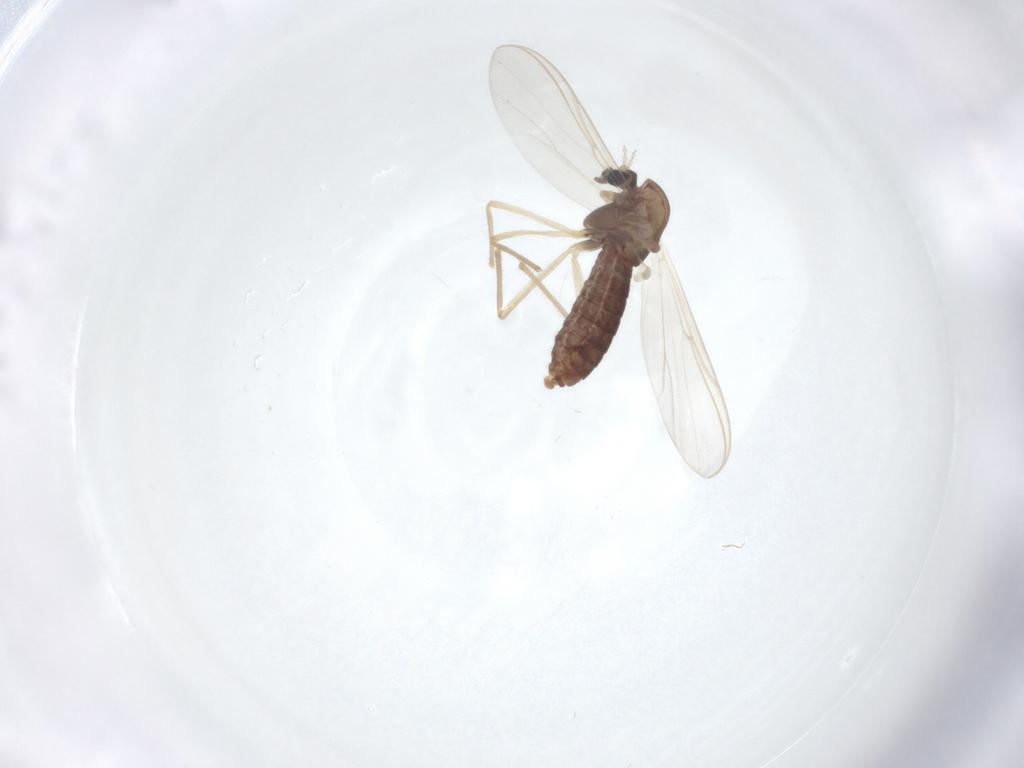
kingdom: Animalia
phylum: Arthropoda
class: Insecta
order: Diptera
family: Chironomidae
